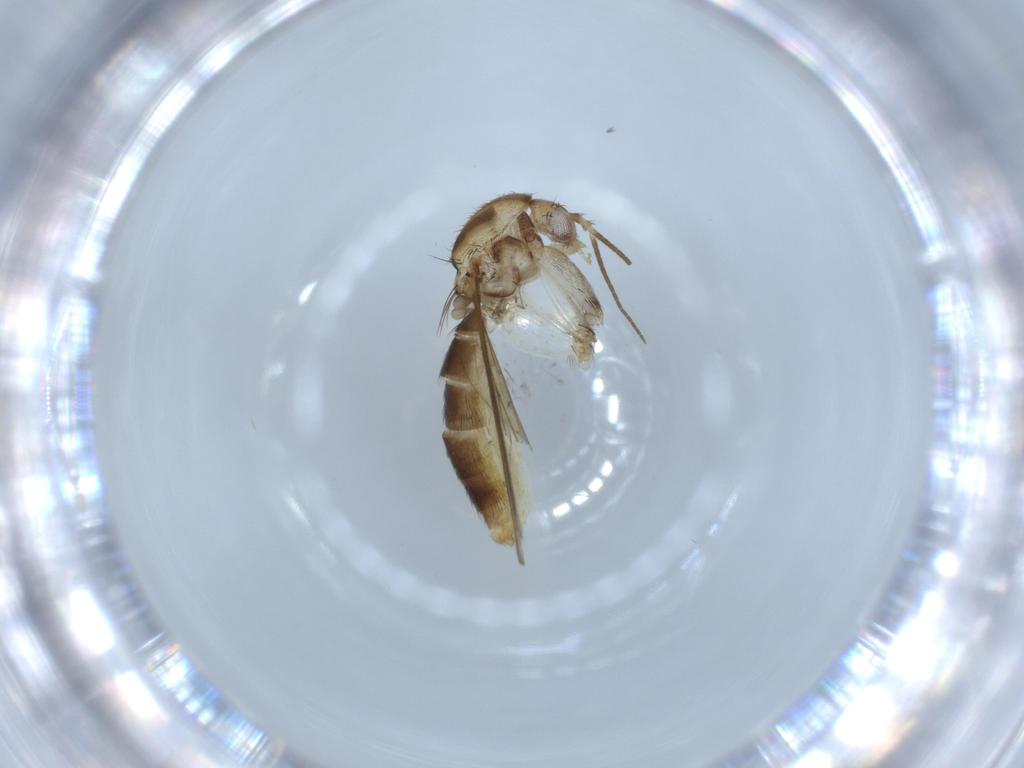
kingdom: Animalia
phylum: Arthropoda
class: Insecta
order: Diptera
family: Mycetophilidae
